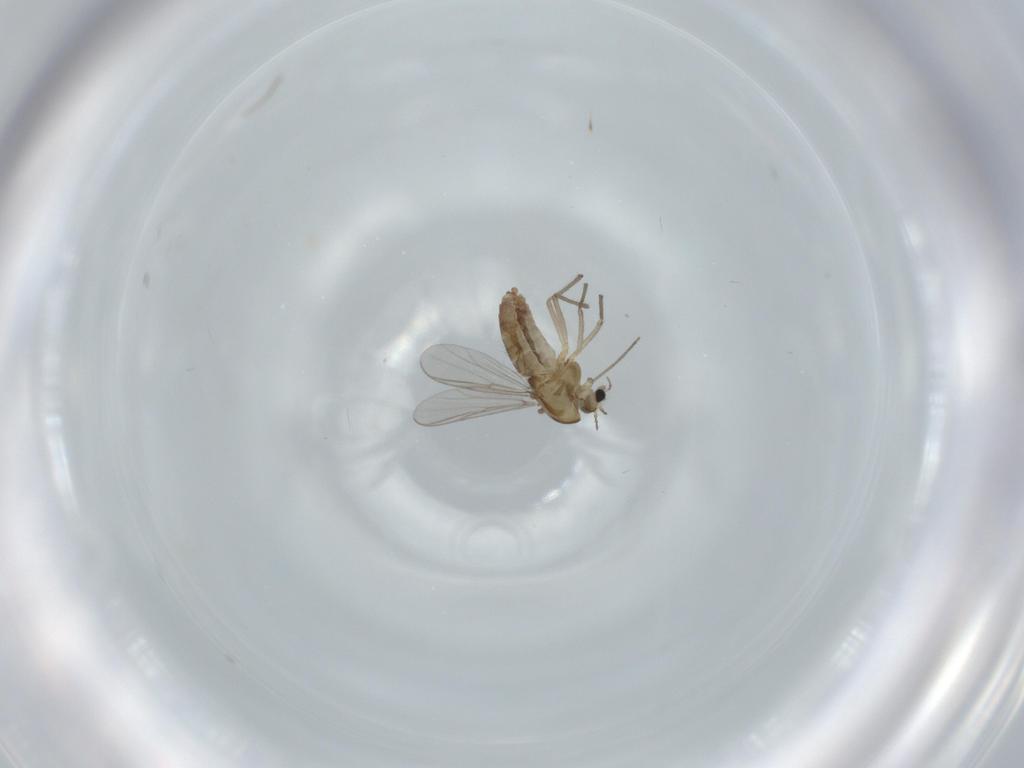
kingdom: Animalia
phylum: Arthropoda
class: Insecta
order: Diptera
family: Chironomidae
